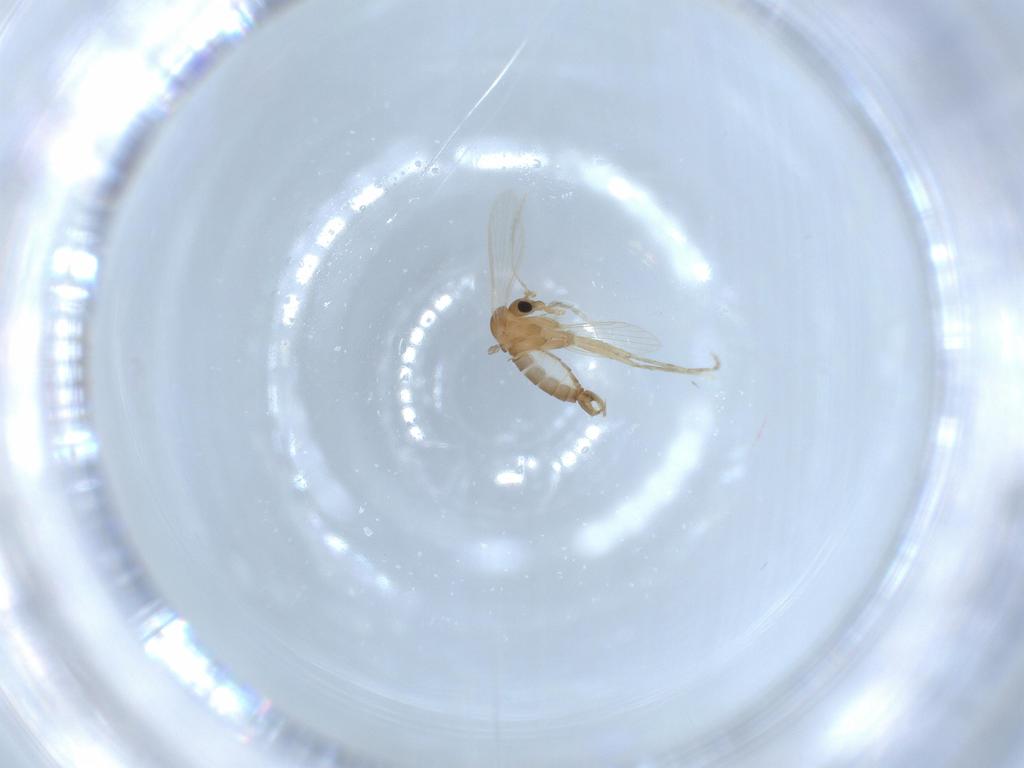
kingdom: Animalia
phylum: Arthropoda
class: Insecta
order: Diptera
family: Psychodidae
